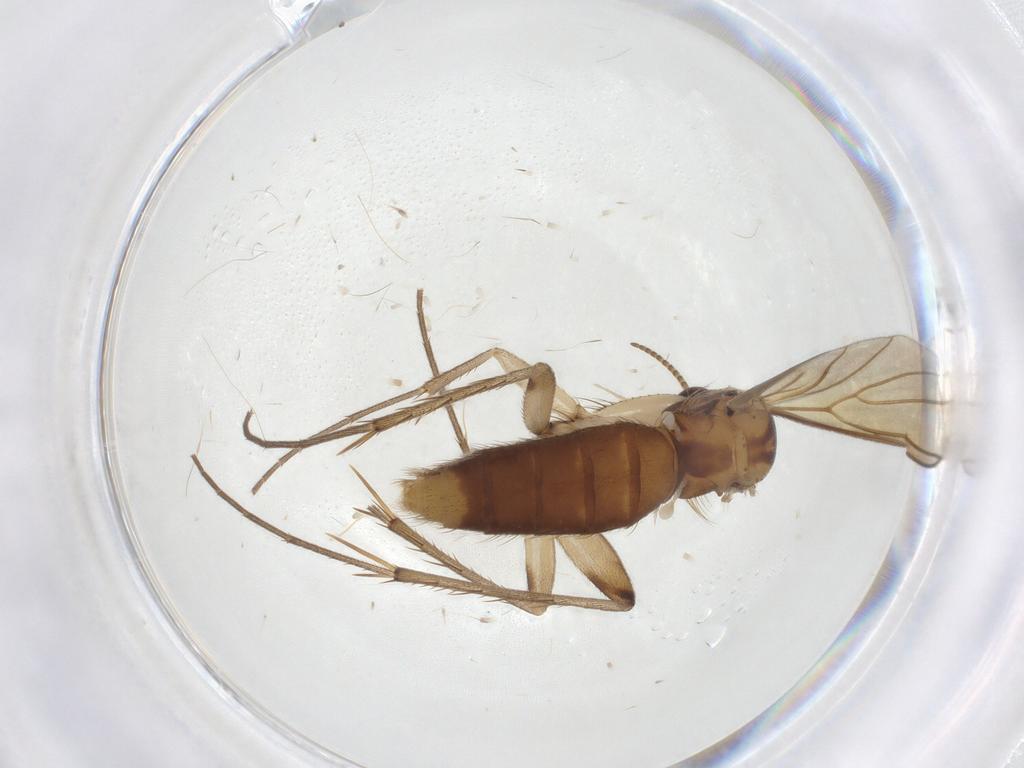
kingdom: Animalia
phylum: Arthropoda
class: Insecta
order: Diptera
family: Mycetophilidae
